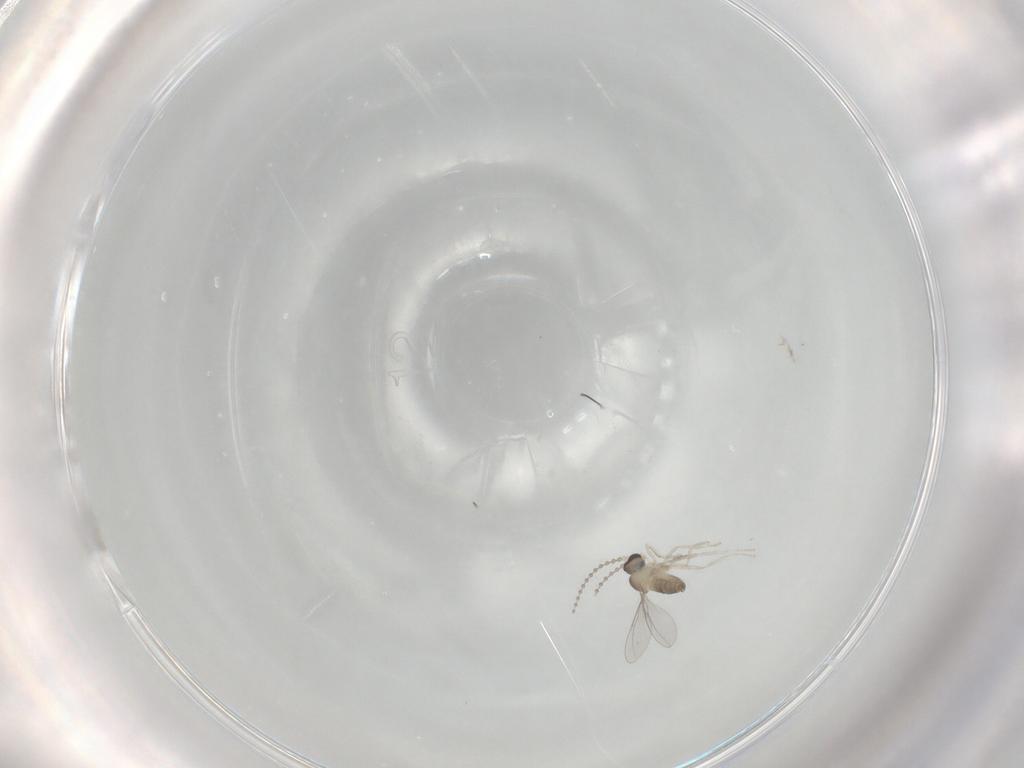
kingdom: Animalia
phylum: Arthropoda
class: Insecta
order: Diptera
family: Cecidomyiidae
